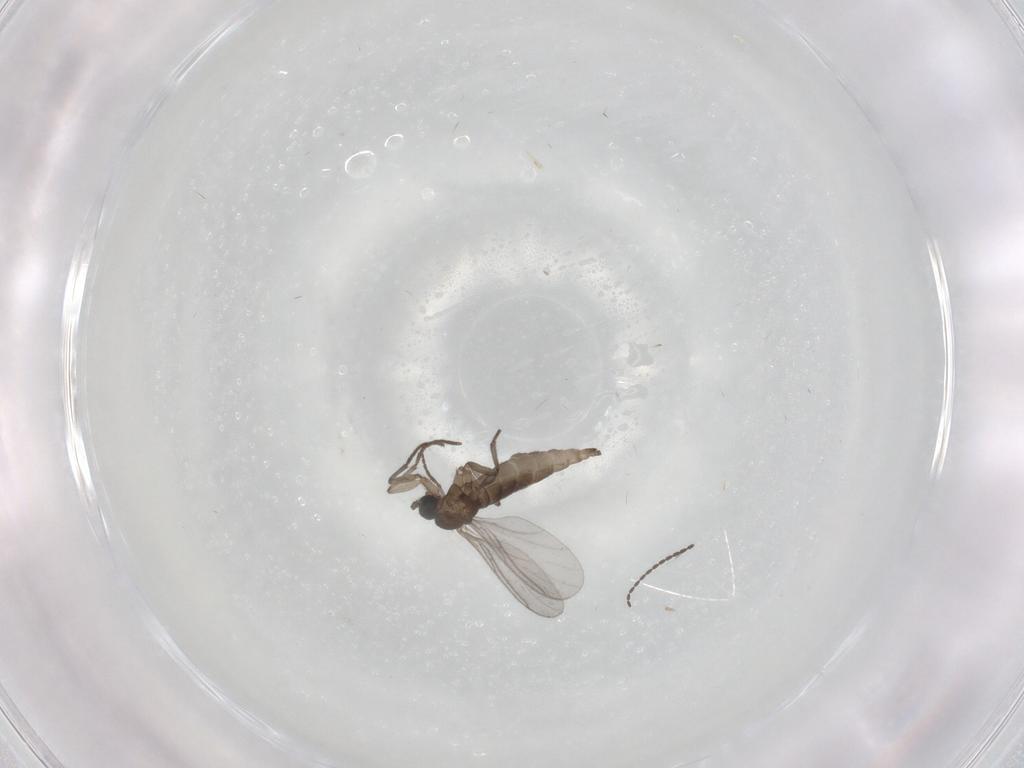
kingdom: Animalia
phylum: Arthropoda
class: Insecta
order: Diptera
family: Sciaridae
